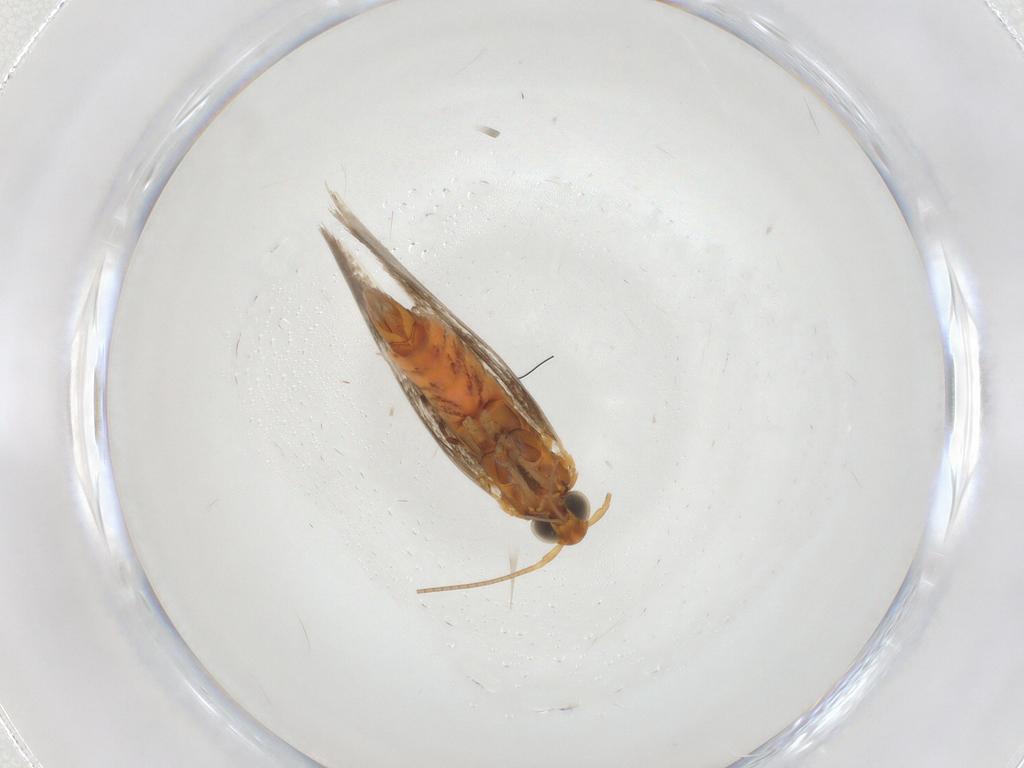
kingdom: Animalia
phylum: Arthropoda
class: Insecta
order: Lepidoptera
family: Gracillariidae
